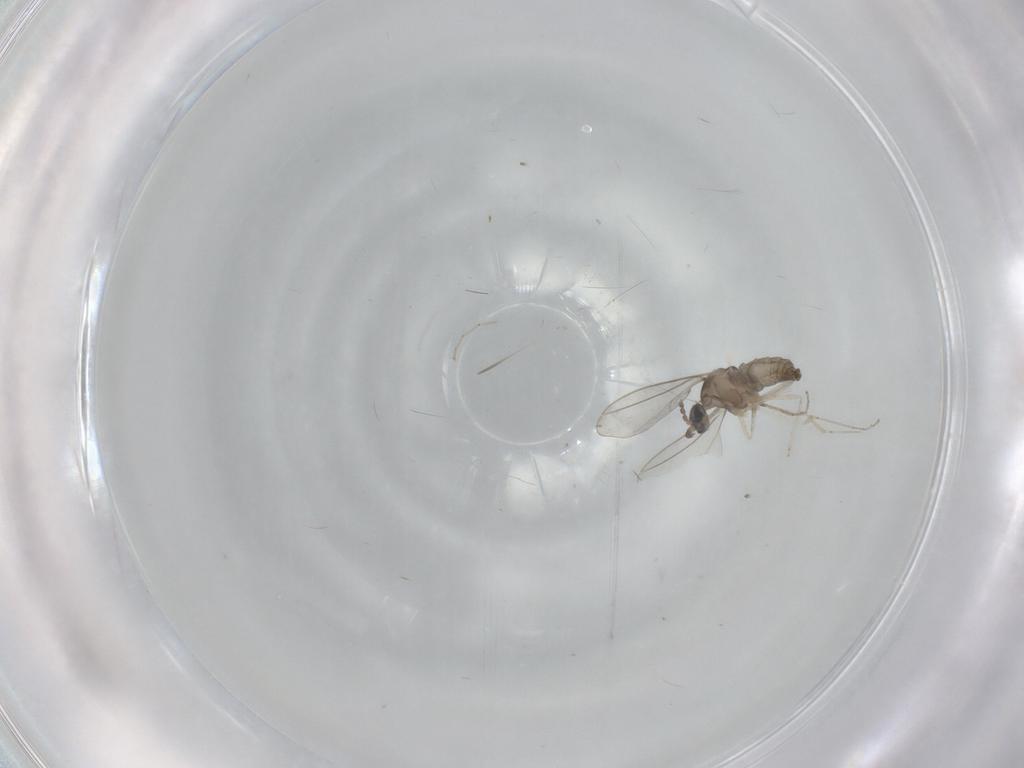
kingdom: Animalia
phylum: Arthropoda
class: Insecta
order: Diptera
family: Cecidomyiidae
